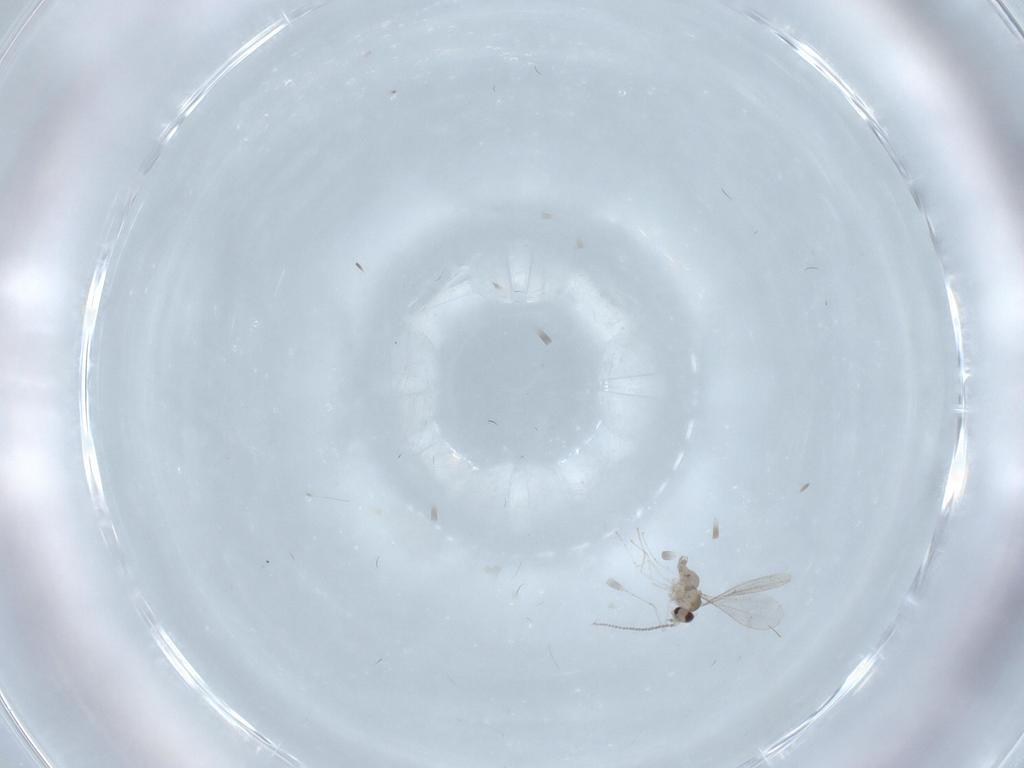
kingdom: Animalia
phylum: Arthropoda
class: Insecta
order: Diptera
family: Cecidomyiidae
